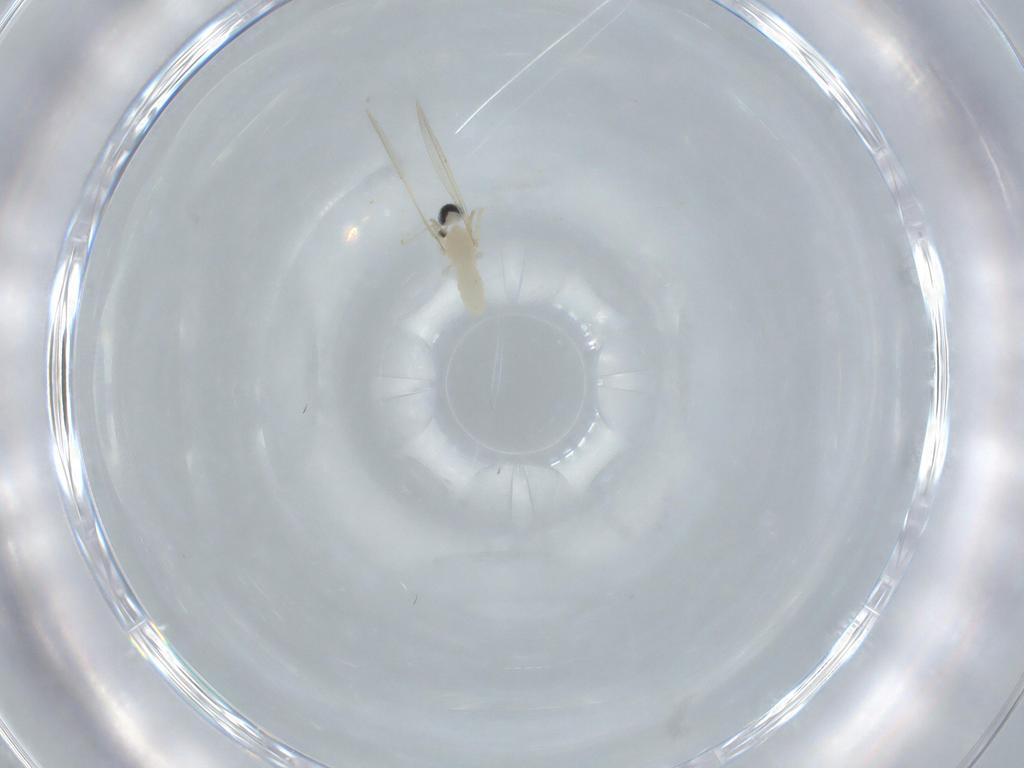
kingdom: Animalia
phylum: Arthropoda
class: Insecta
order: Diptera
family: Cecidomyiidae
